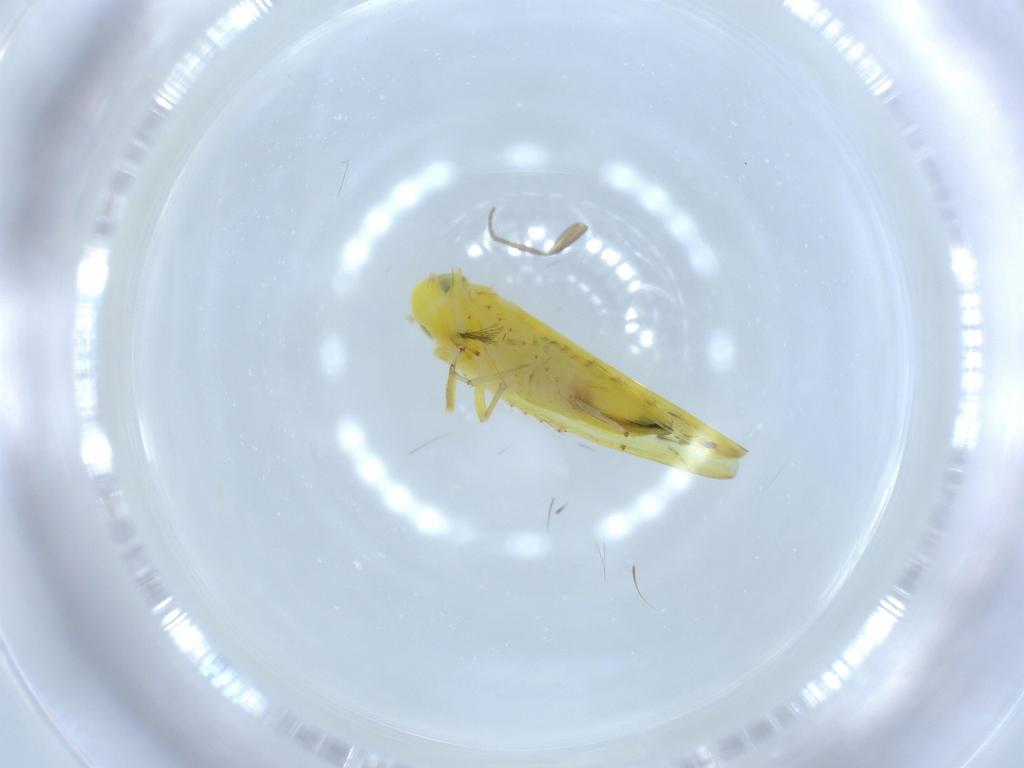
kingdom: Animalia
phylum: Arthropoda
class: Insecta
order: Hemiptera
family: Cicadellidae
